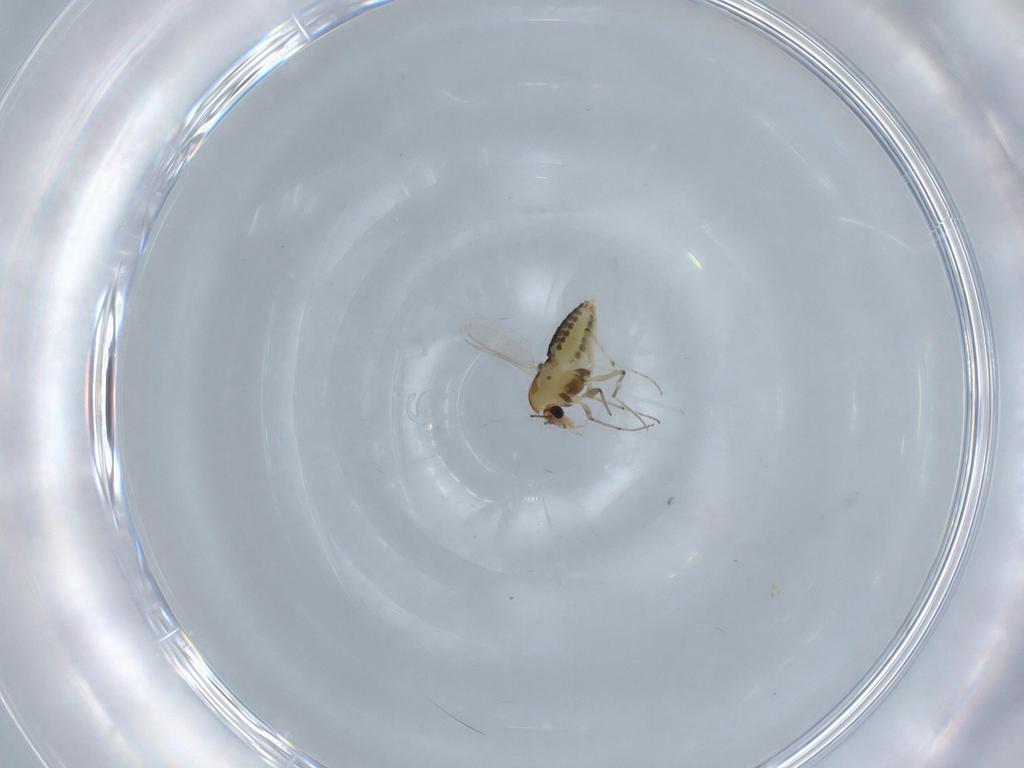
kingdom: Animalia
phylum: Arthropoda
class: Insecta
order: Diptera
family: Chironomidae
